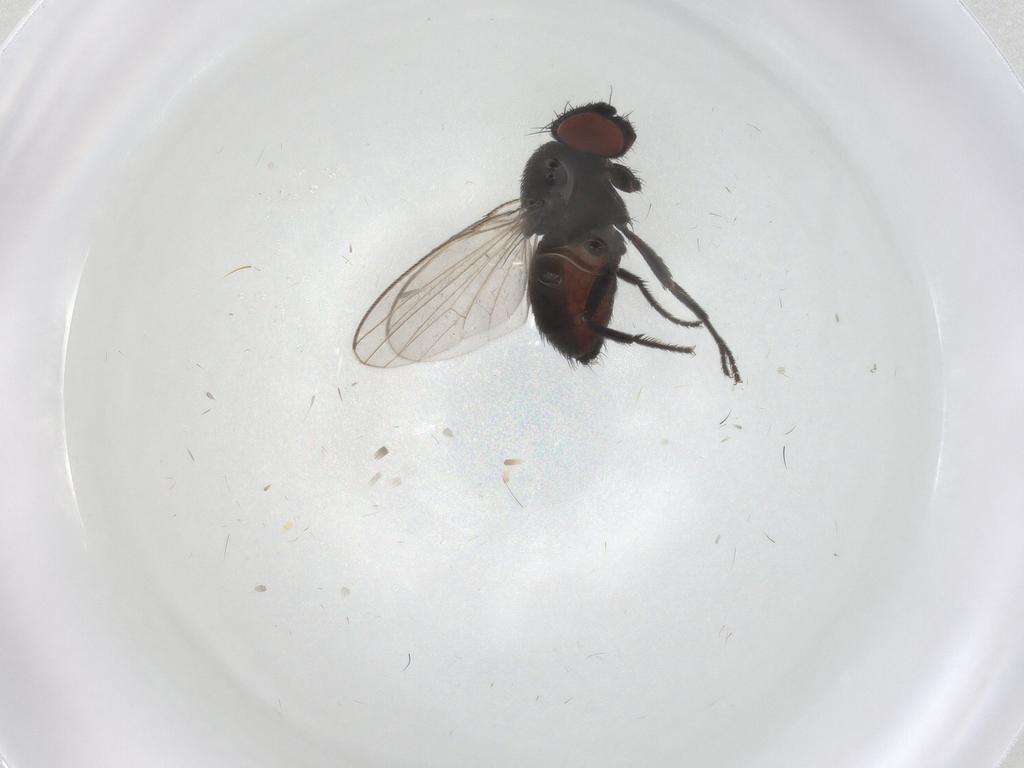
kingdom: Animalia
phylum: Arthropoda
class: Insecta
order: Diptera
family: Milichiidae
